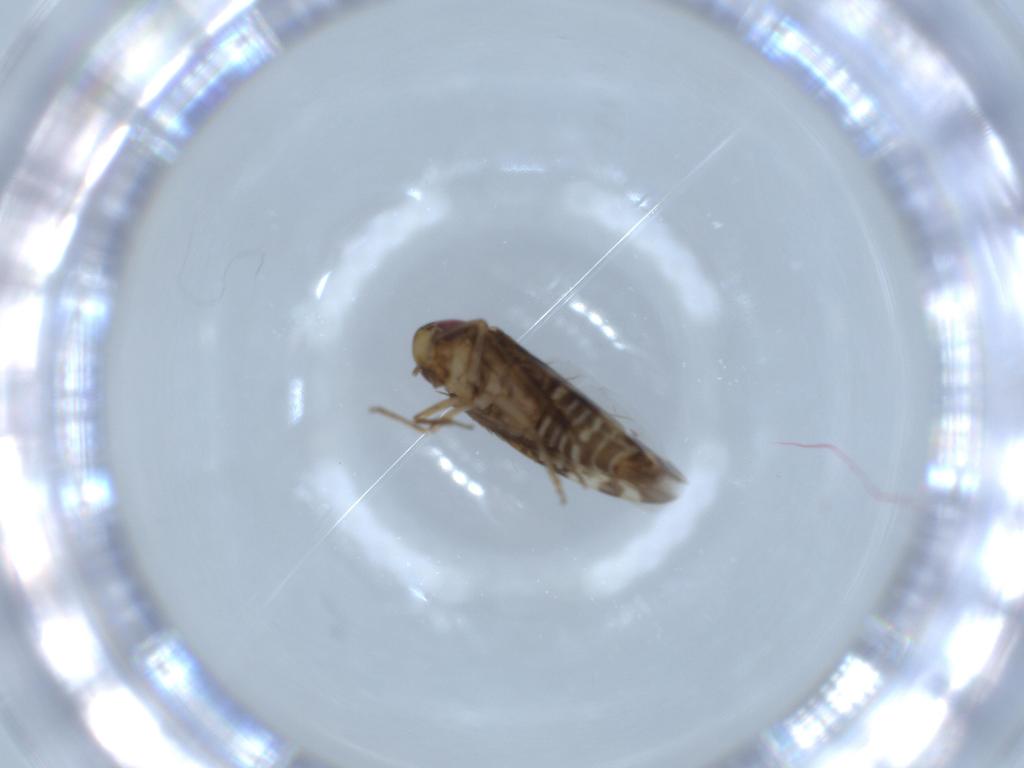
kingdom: Animalia
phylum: Arthropoda
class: Insecta
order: Hemiptera
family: Cicadellidae
